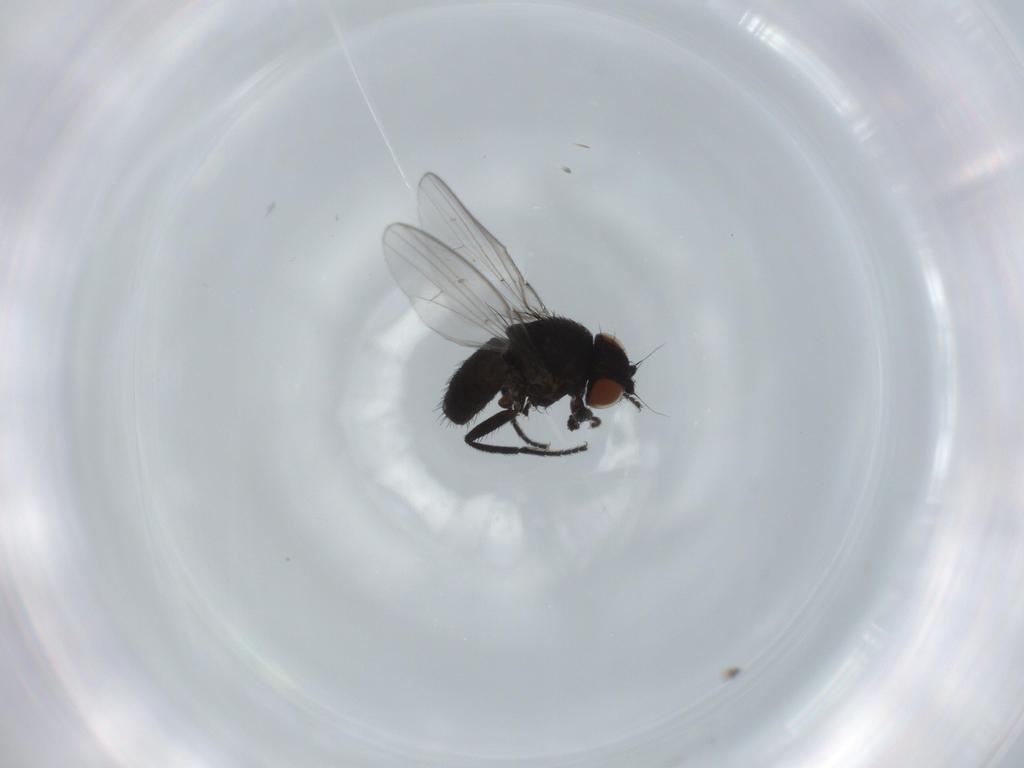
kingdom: Animalia
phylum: Arthropoda
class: Insecta
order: Diptera
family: Milichiidae
